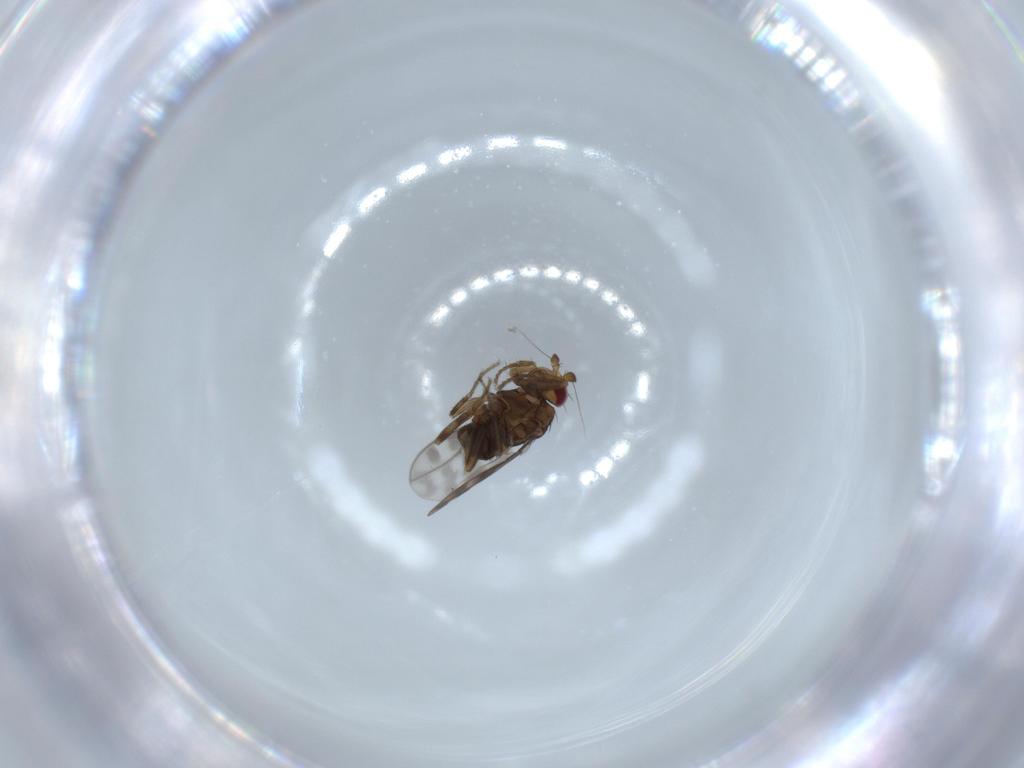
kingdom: Animalia
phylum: Arthropoda
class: Insecta
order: Diptera
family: Sphaeroceridae
